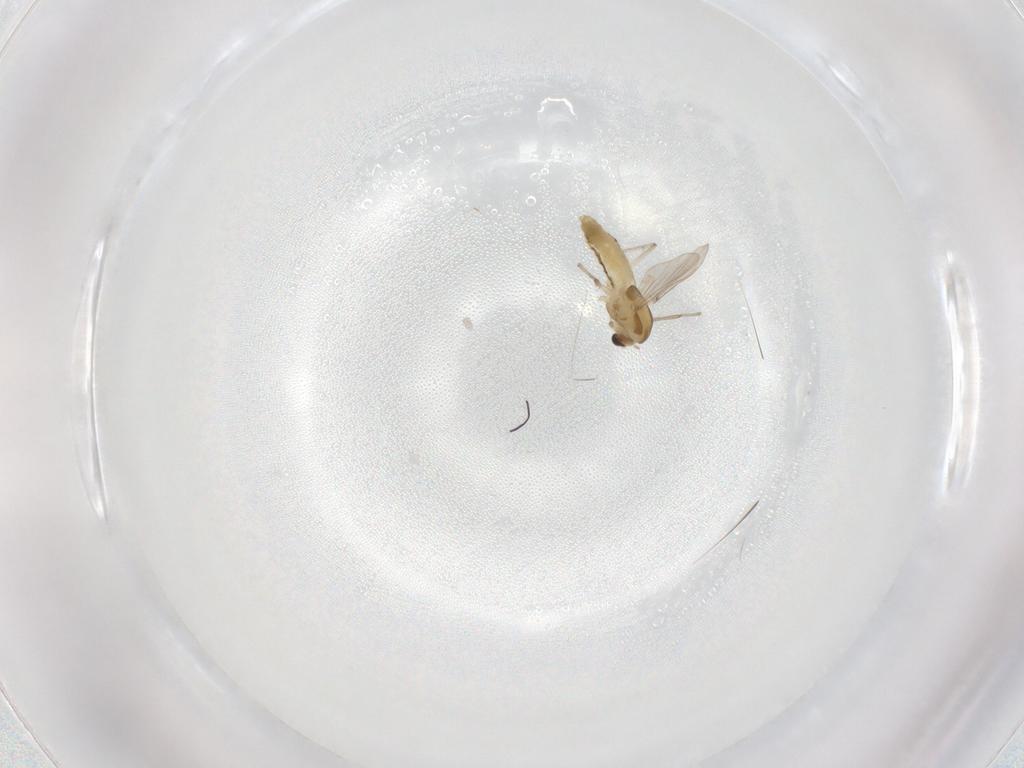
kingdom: Animalia
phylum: Arthropoda
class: Insecta
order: Diptera
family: Chironomidae
